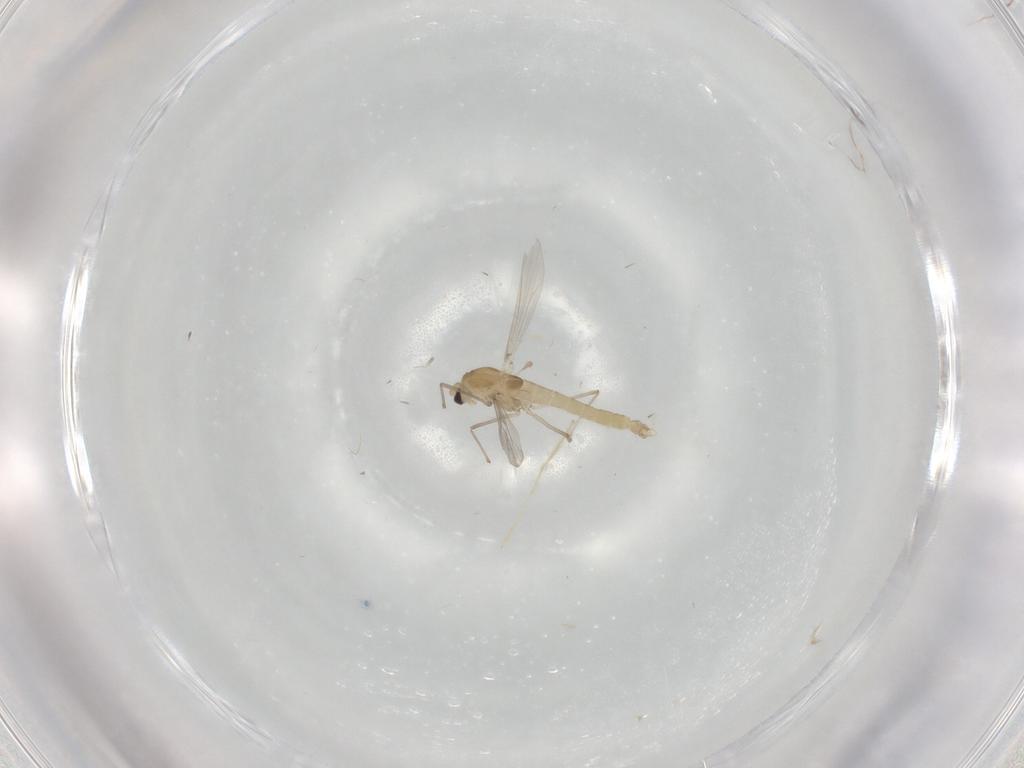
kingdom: Animalia
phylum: Arthropoda
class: Insecta
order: Diptera
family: Chironomidae
